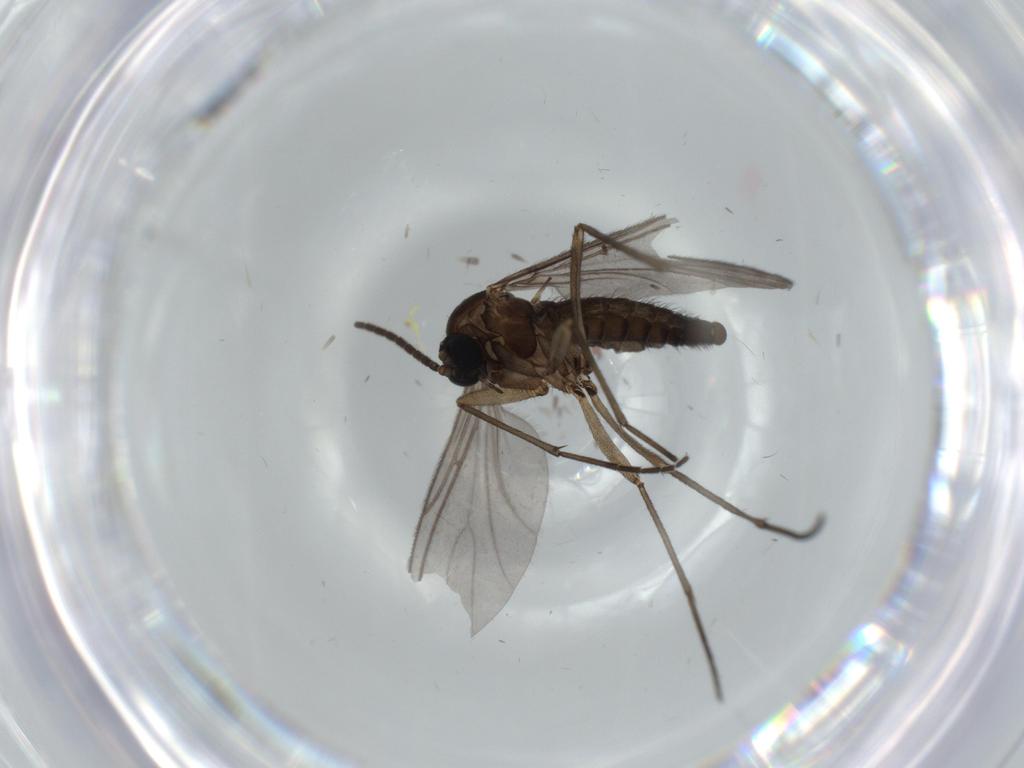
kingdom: Animalia
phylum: Arthropoda
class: Insecta
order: Diptera
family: Sciaridae
